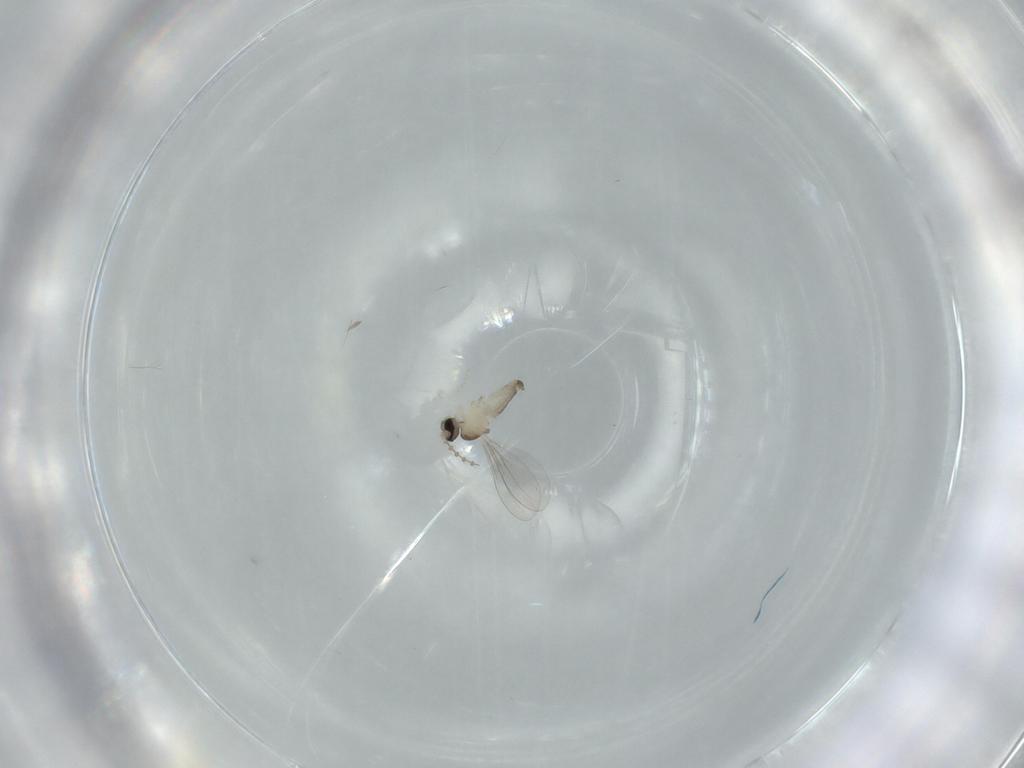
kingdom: Animalia
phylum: Arthropoda
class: Insecta
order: Diptera
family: Cecidomyiidae
